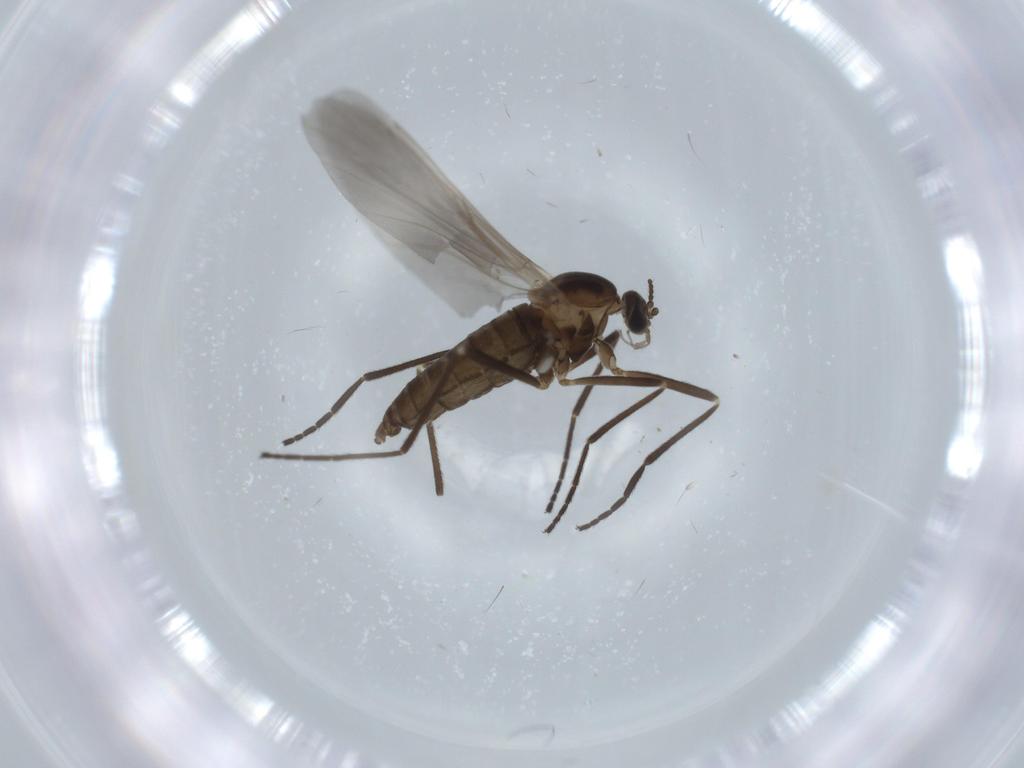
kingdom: Animalia
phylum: Arthropoda
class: Insecta
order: Diptera
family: Cecidomyiidae
